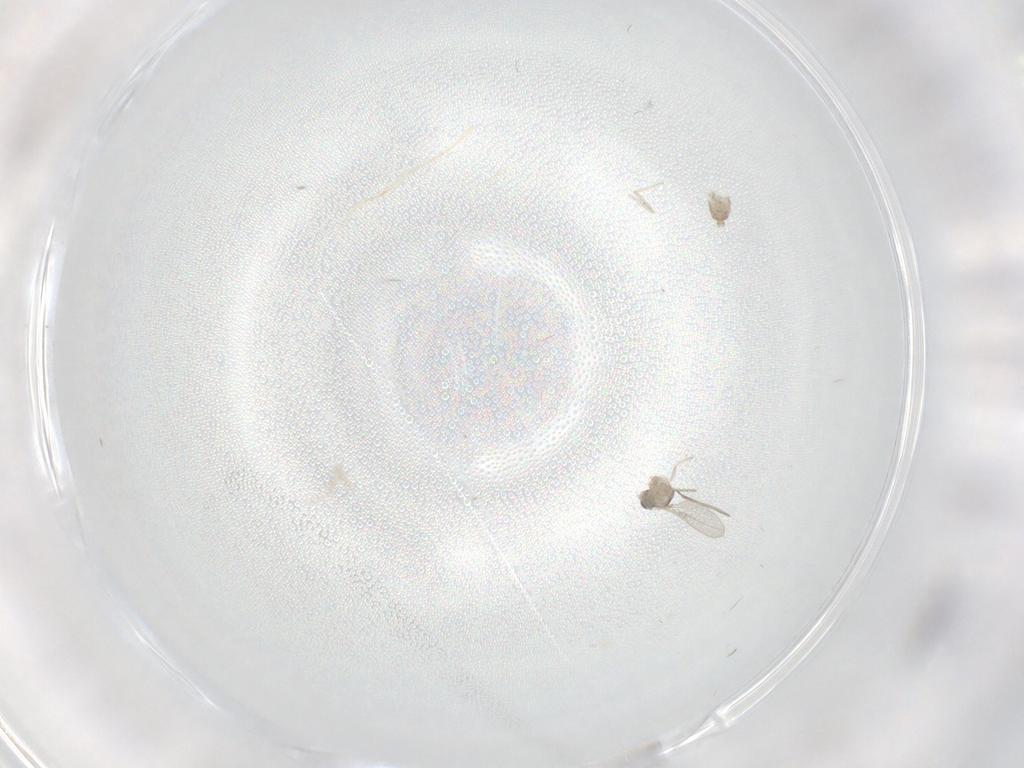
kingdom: Animalia
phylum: Arthropoda
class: Insecta
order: Diptera
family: Cecidomyiidae
